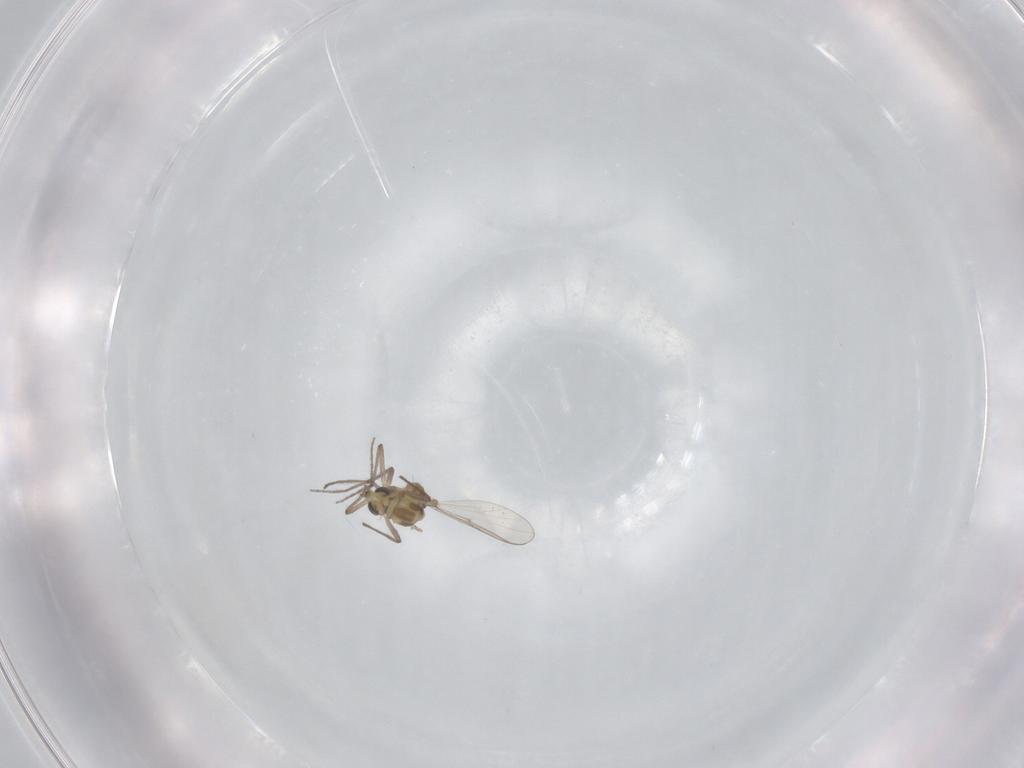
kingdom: Animalia
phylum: Arthropoda
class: Insecta
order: Diptera
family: Chironomidae
